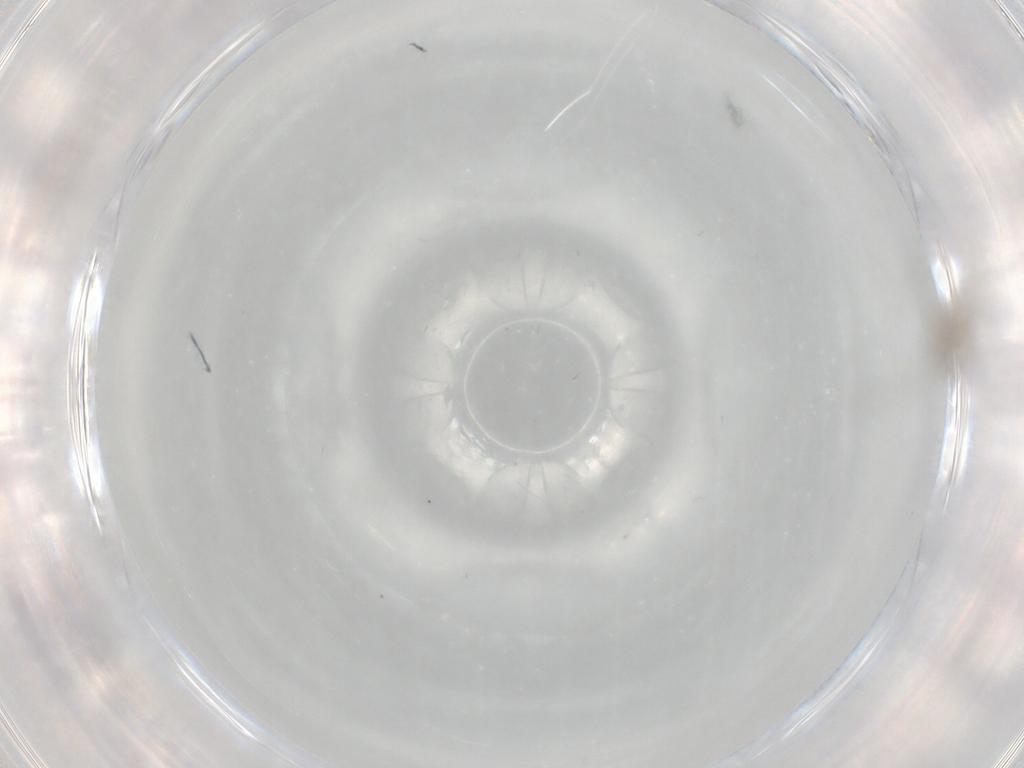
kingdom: Animalia
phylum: Arthropoda
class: Insecta
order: Diptera
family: Cecidomyiidae
